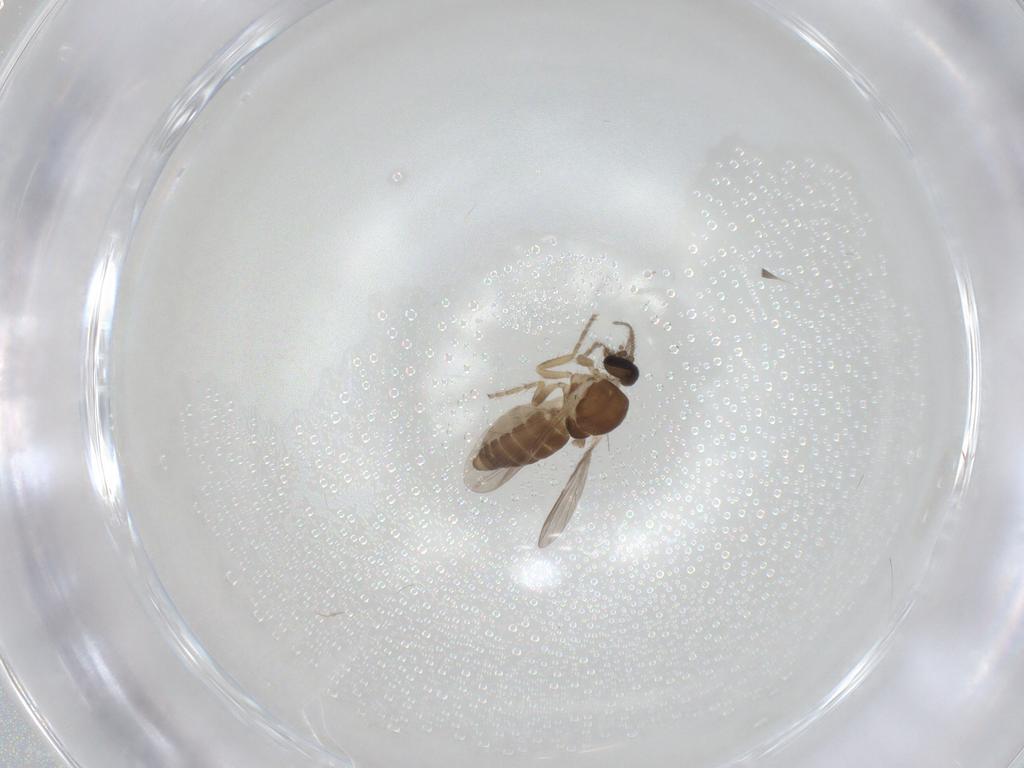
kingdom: Animalia
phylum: Arthropoda
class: Insecta
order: Diptera
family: Ceratopogonidae
